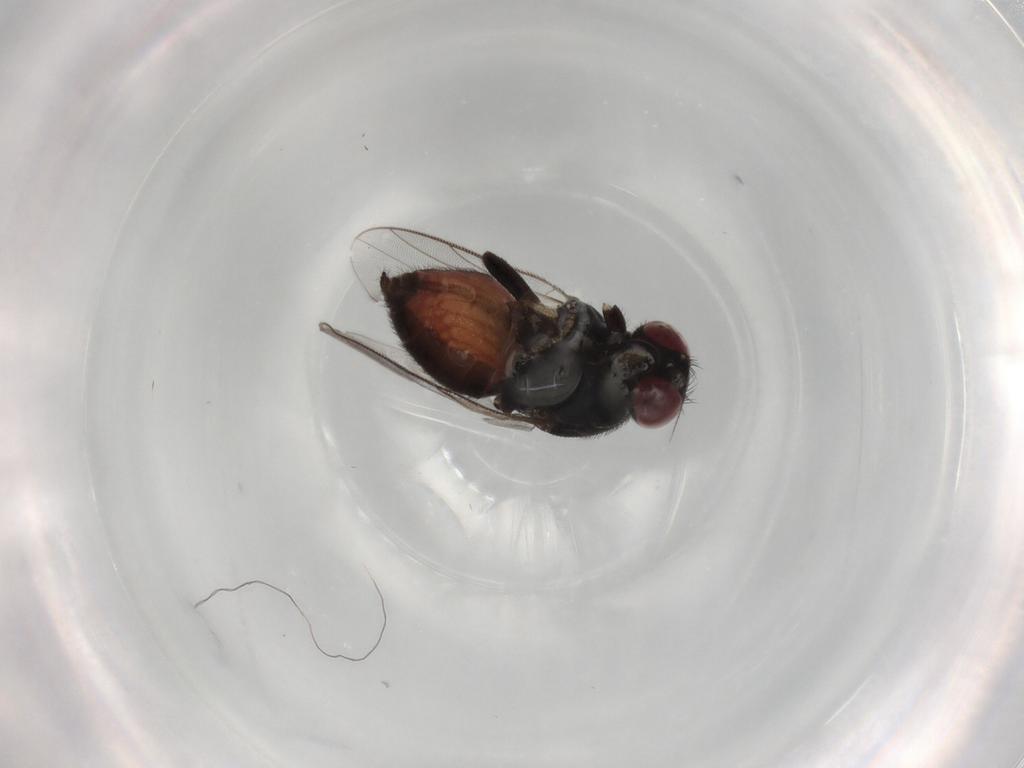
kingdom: Animalia
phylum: Arthropoda
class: Insecta
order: Diptera
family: Chloropidae
